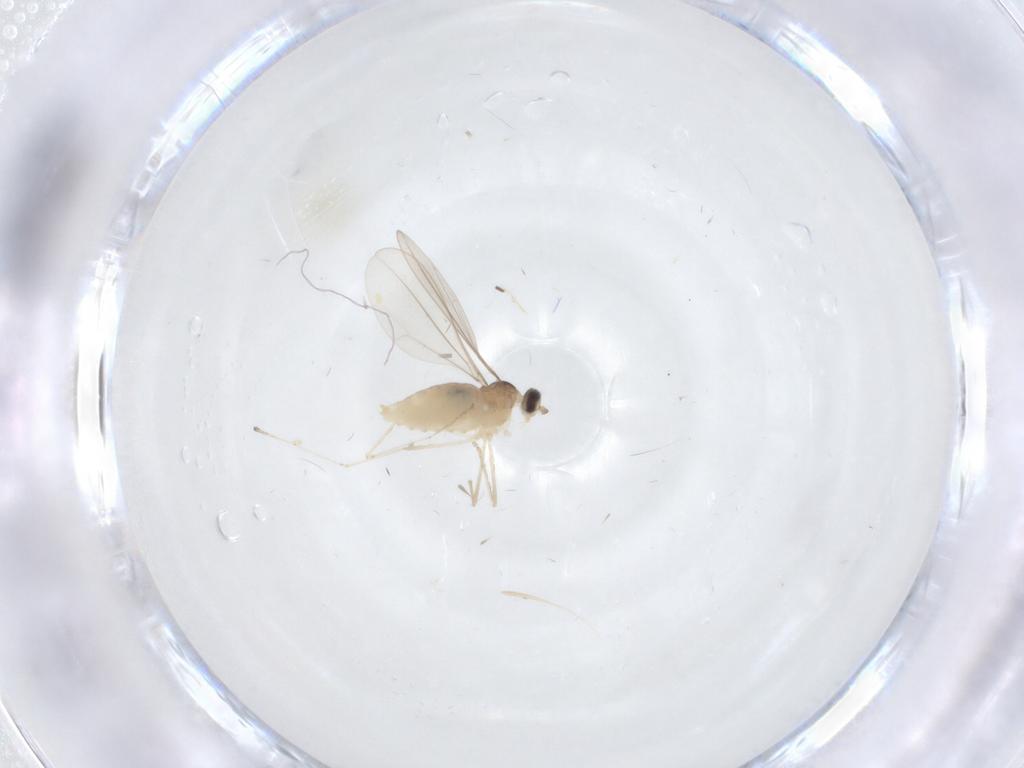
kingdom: Animalia
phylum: Arthropoda
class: Insecta
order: Diptera
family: Cecidomyiidae
